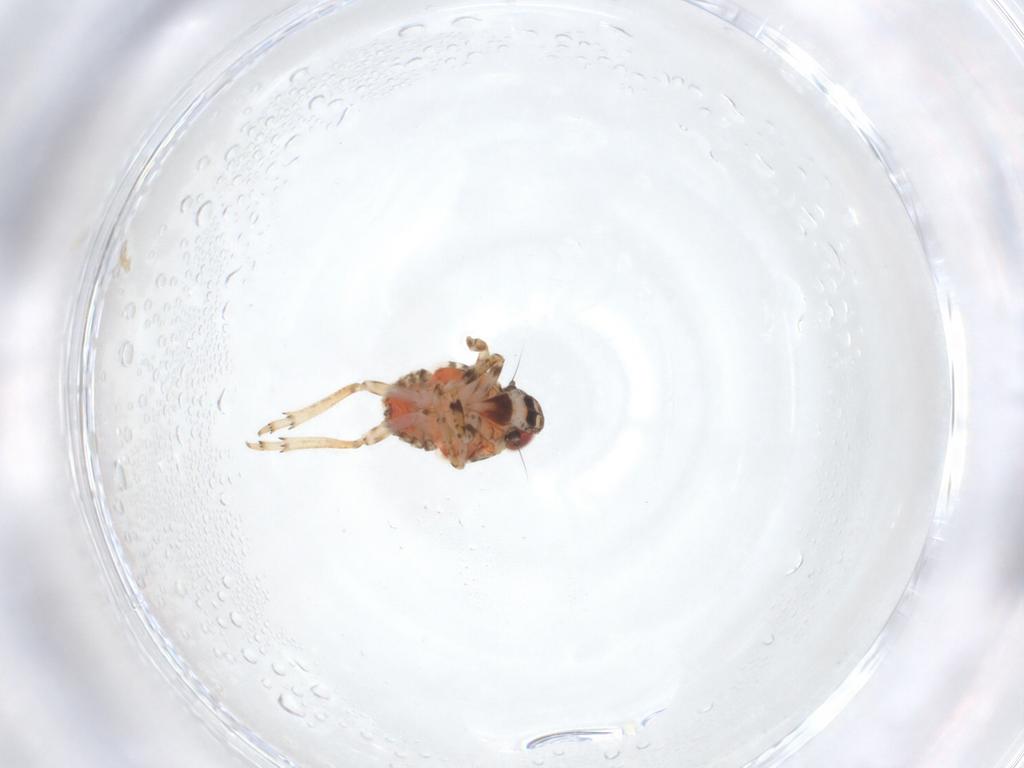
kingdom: Animalia
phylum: Arthropoda
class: Insecta
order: Hemiptera
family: Issidae
